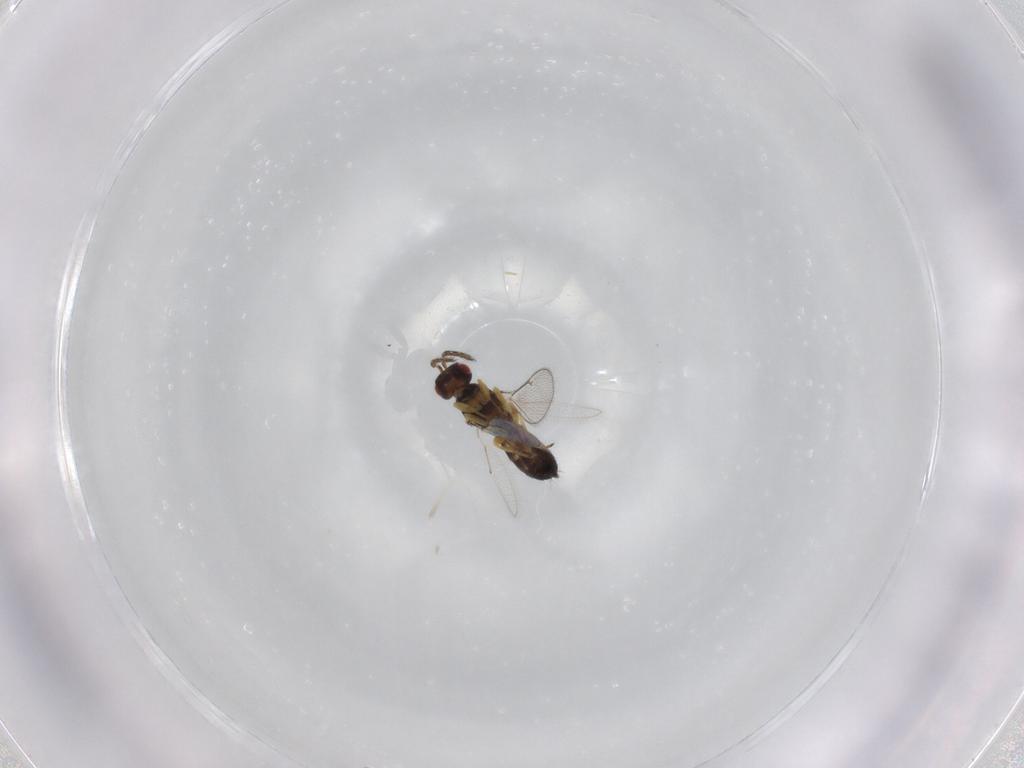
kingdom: Animalia
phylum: Arthropoda
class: Insecta
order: Hymenoptera
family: Eulophidae
